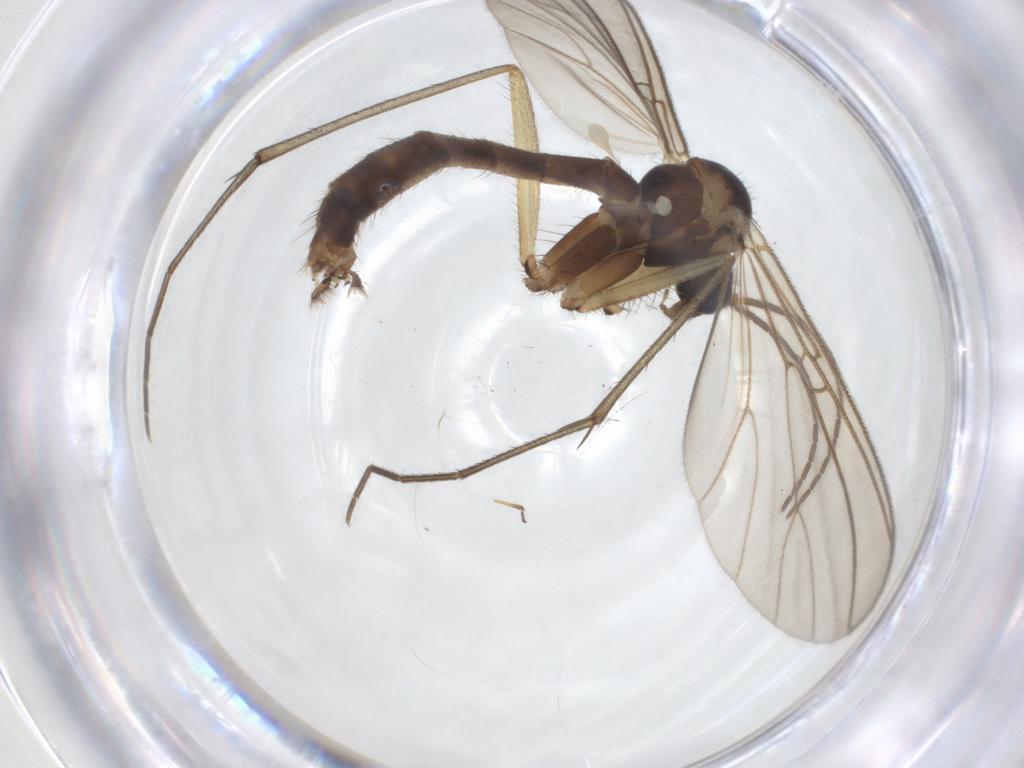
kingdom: Animalia
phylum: Arthropoda
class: Insecta
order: Diptera
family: Mycetophilidae
